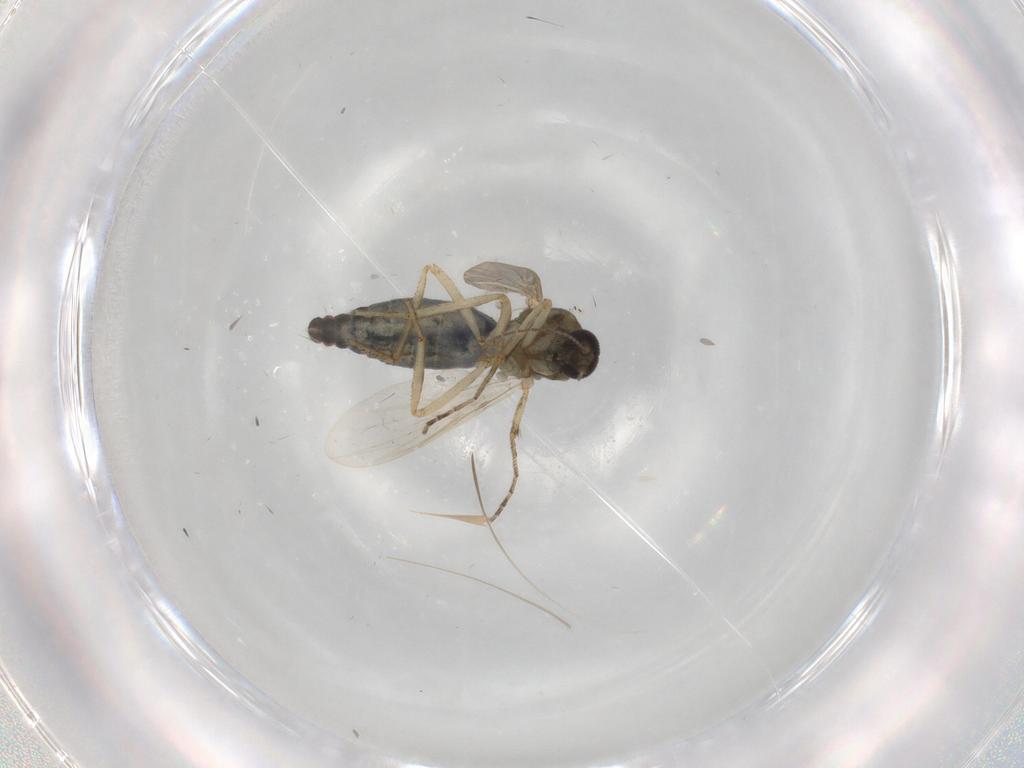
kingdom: Animalia
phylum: Arthropoda
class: Insecta
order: Diptera
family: Ceratopogonidae
